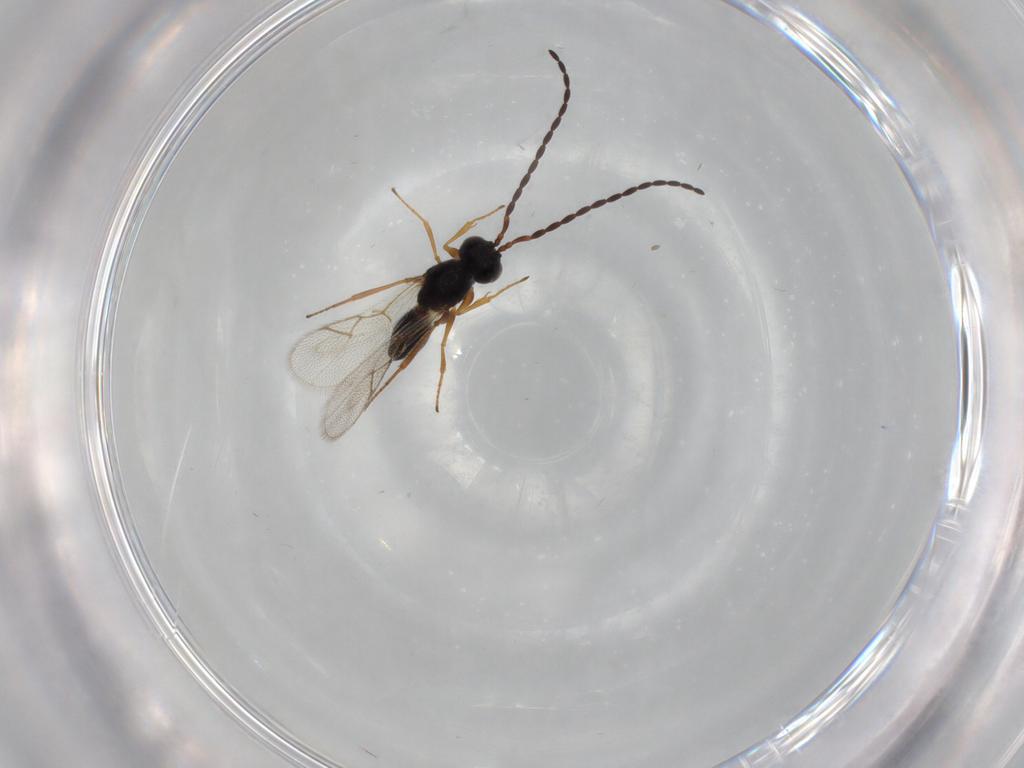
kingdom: Animalia
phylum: Arthropoda
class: Insecta
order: Hymenoptera
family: Figitidae
